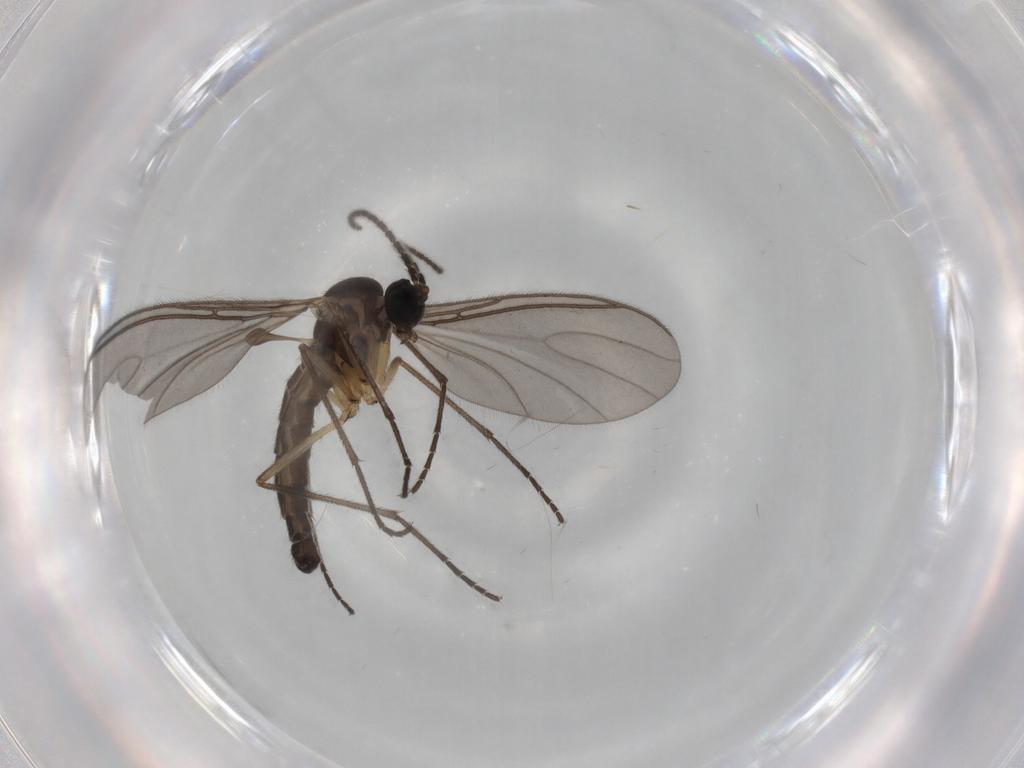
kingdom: Animalia
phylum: Arthropoda
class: Insecta
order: Diptera
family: Sciaridae
